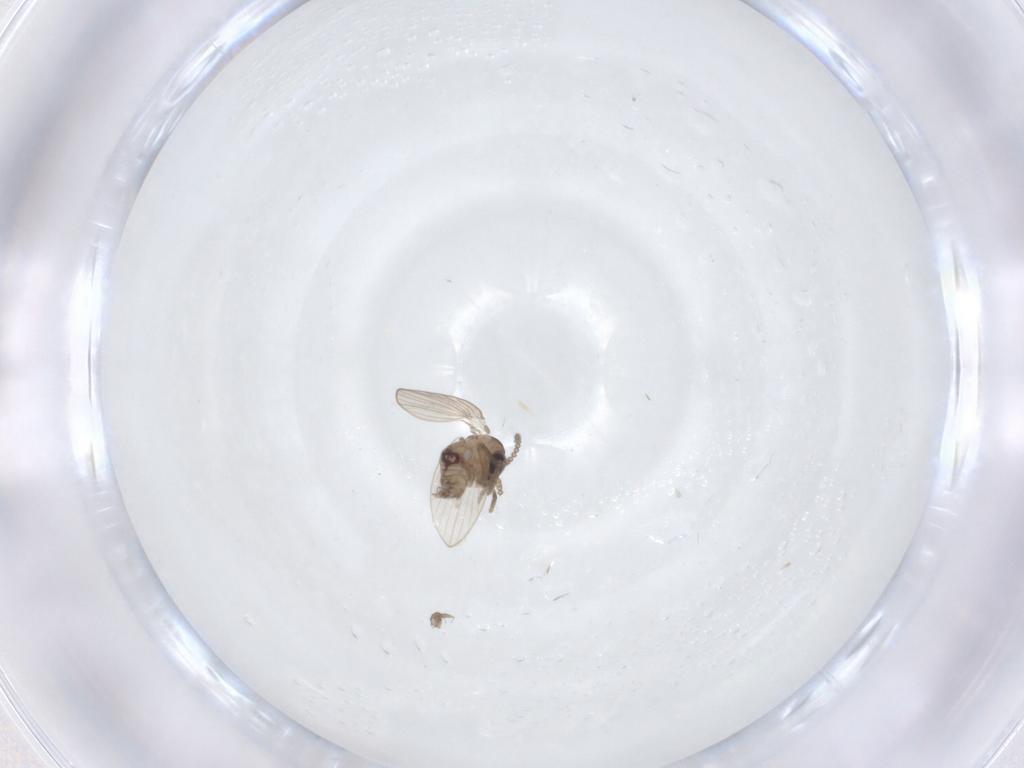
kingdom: Animalia
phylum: Arthropoda
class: Insecta
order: Diptera
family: Psychodidae
